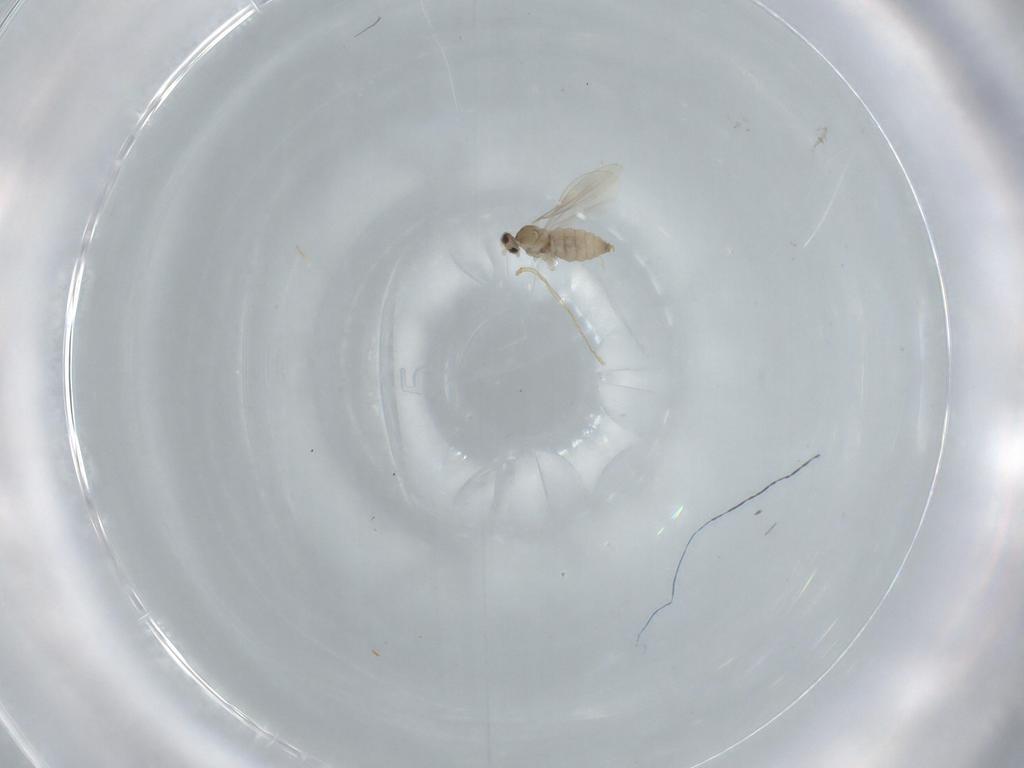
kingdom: Animalia
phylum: Arthropoda
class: Insecta
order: Diptera
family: Cecidomyiidae
